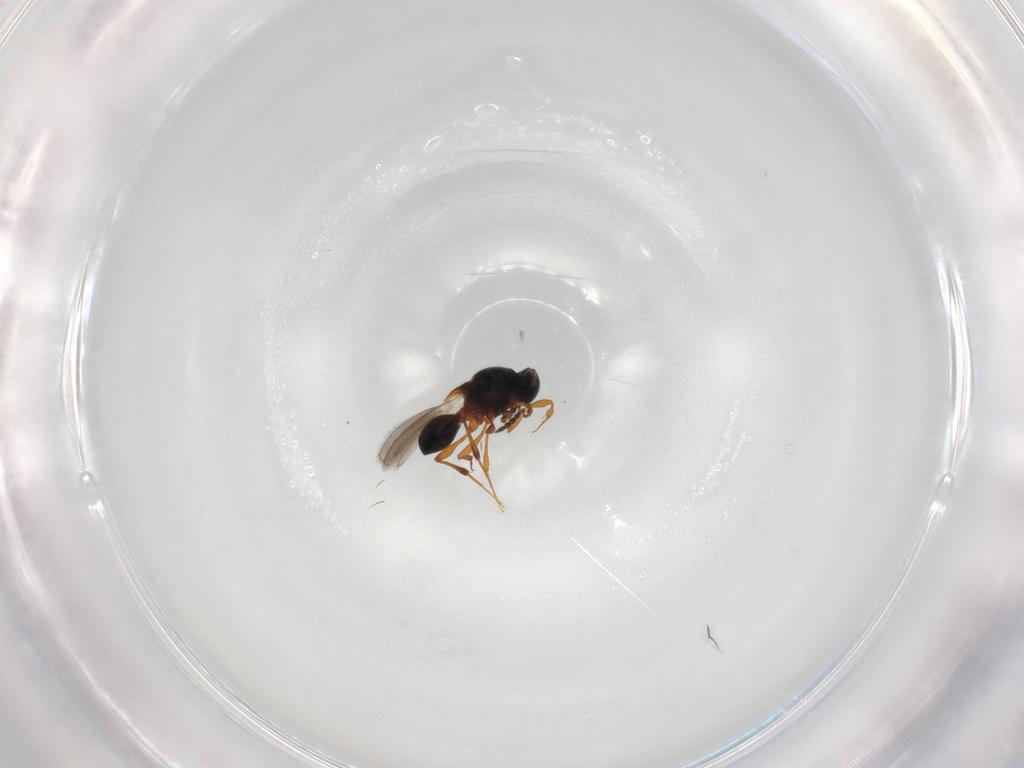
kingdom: Animalia
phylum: Arthropoda
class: Insecta
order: Hymenoptera
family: Platygastridae
